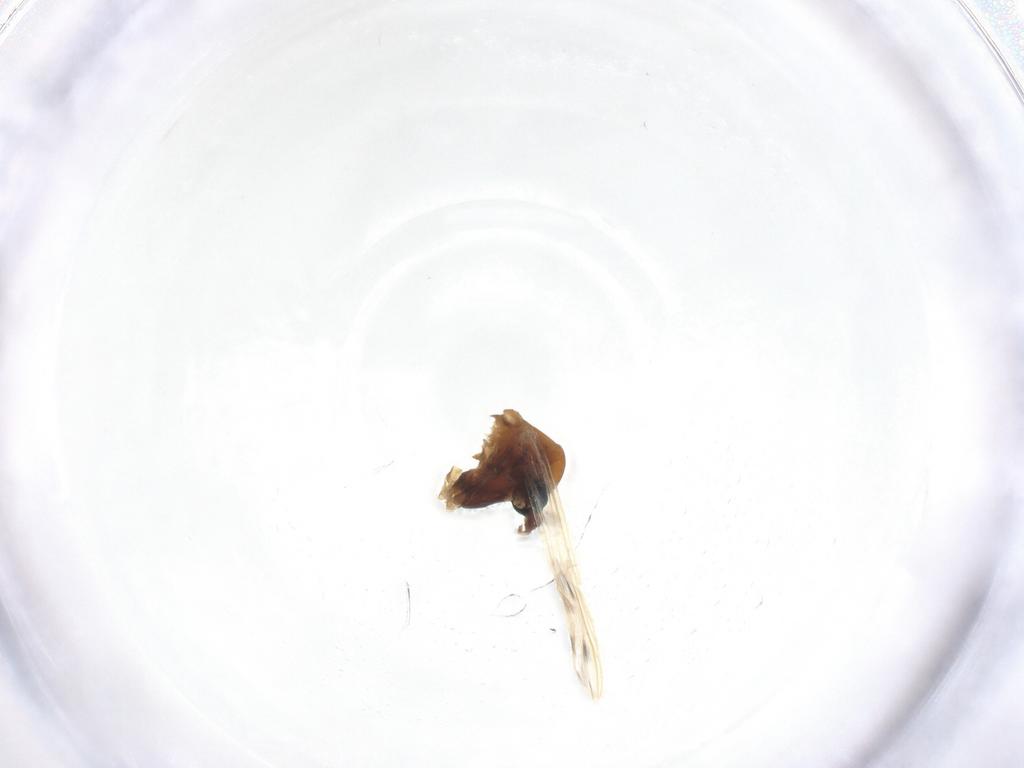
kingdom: Animalia
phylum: Arthropoda
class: Insecta
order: Diptera
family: Chironomidae
